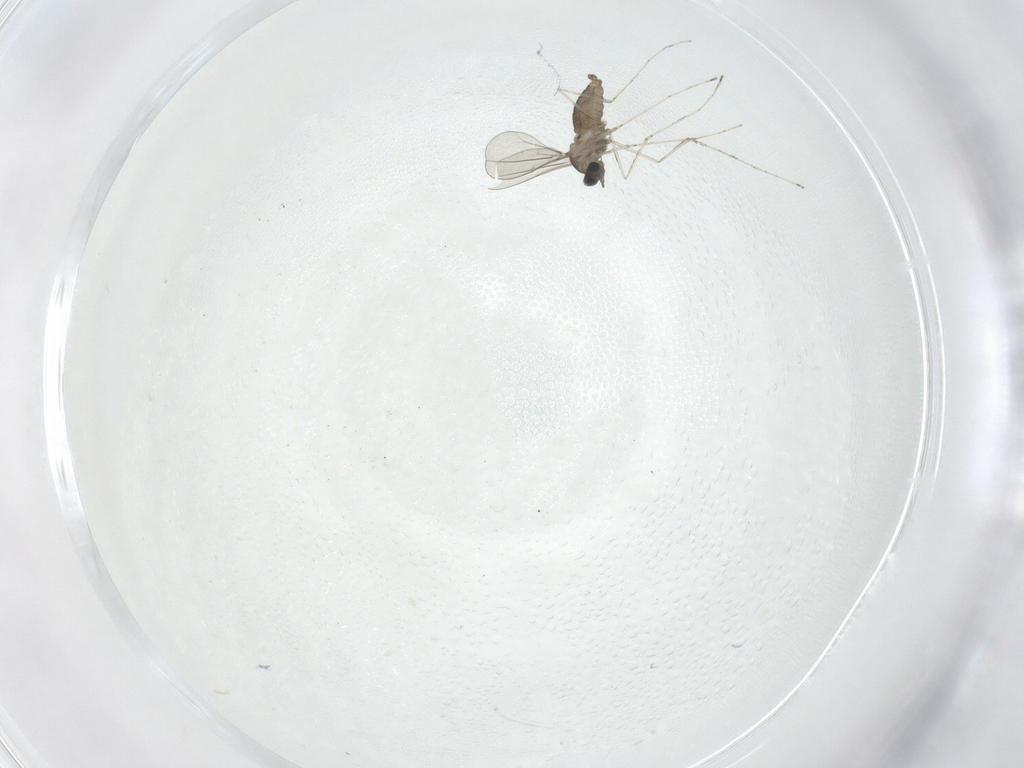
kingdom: Animalia
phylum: Arthropoda
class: Insecta
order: Diptera
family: Cecidomyiidae
